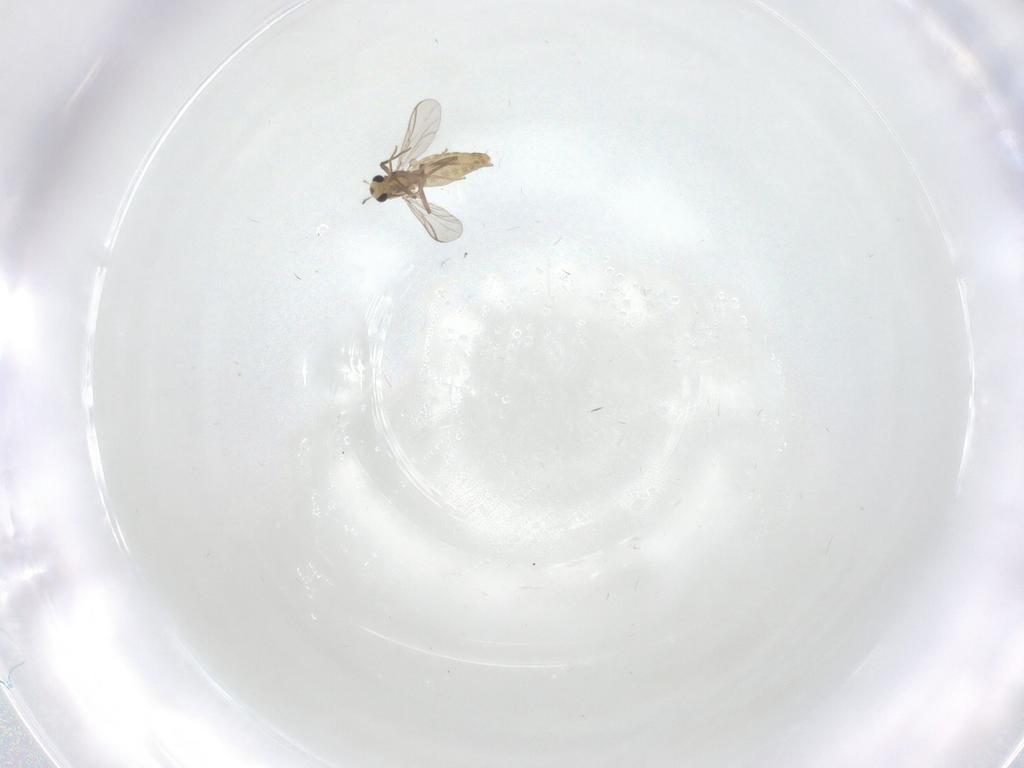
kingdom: Animalia
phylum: Arthropoda
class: Insecta
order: Diptera
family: Chironomidae
